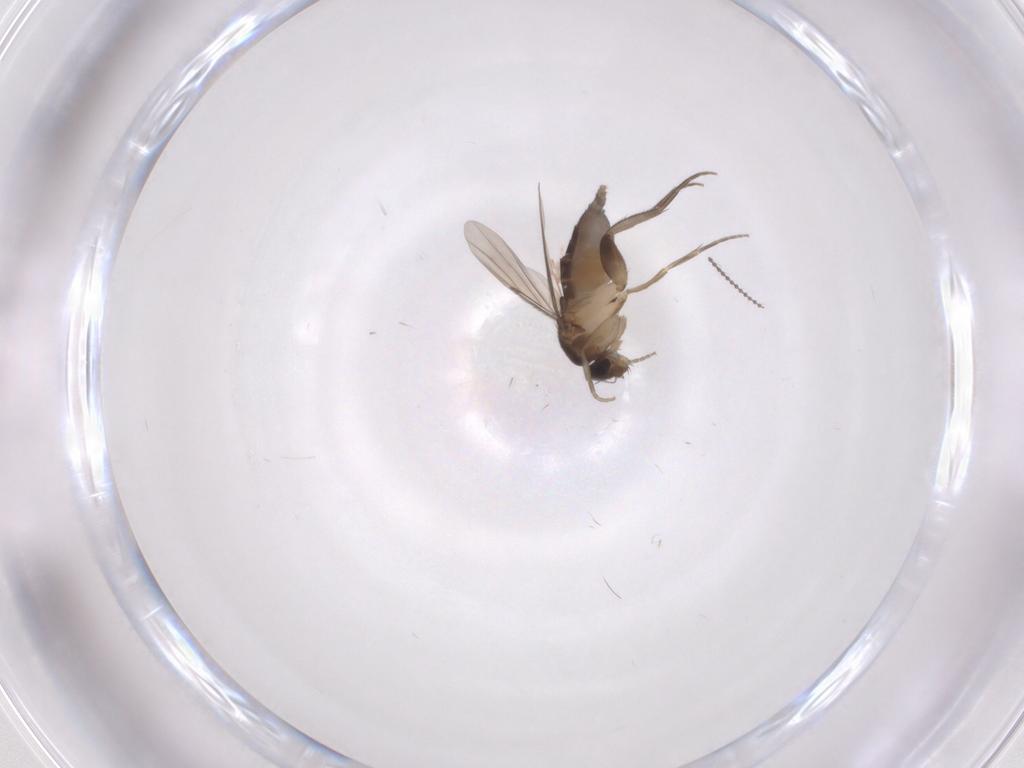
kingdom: Animalia
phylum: Arthropoda
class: Insecta
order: Diptera
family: Phoridae
